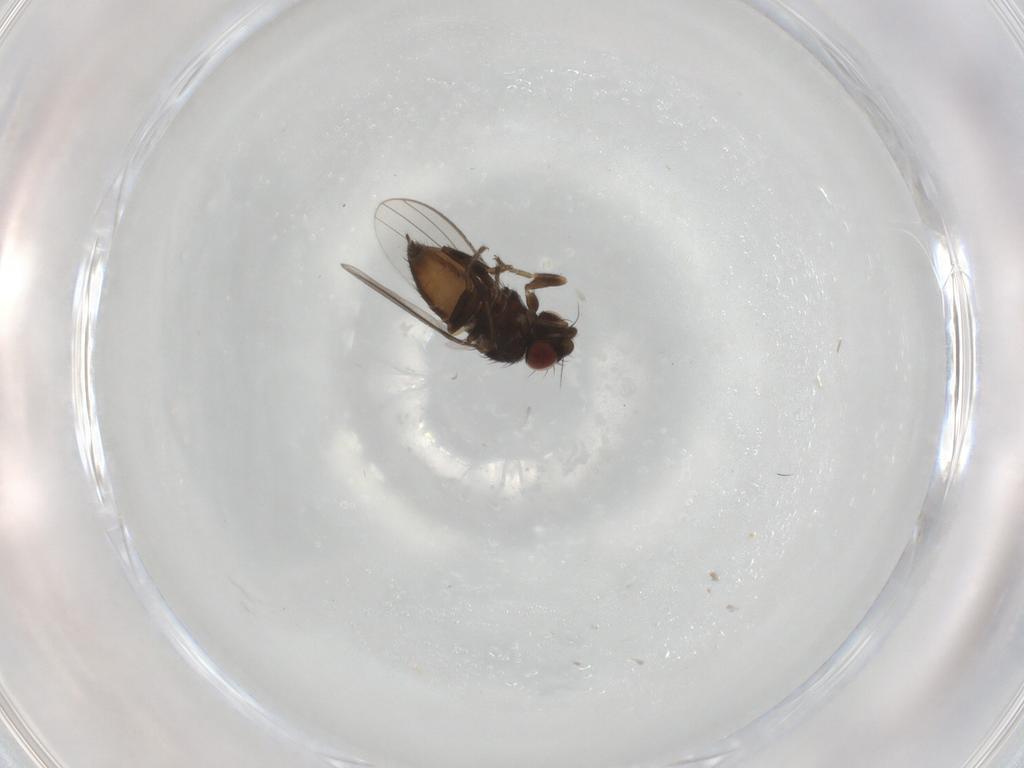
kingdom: Animalia
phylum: Arthropoda
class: Insecta
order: Diptera
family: Milichiidae
